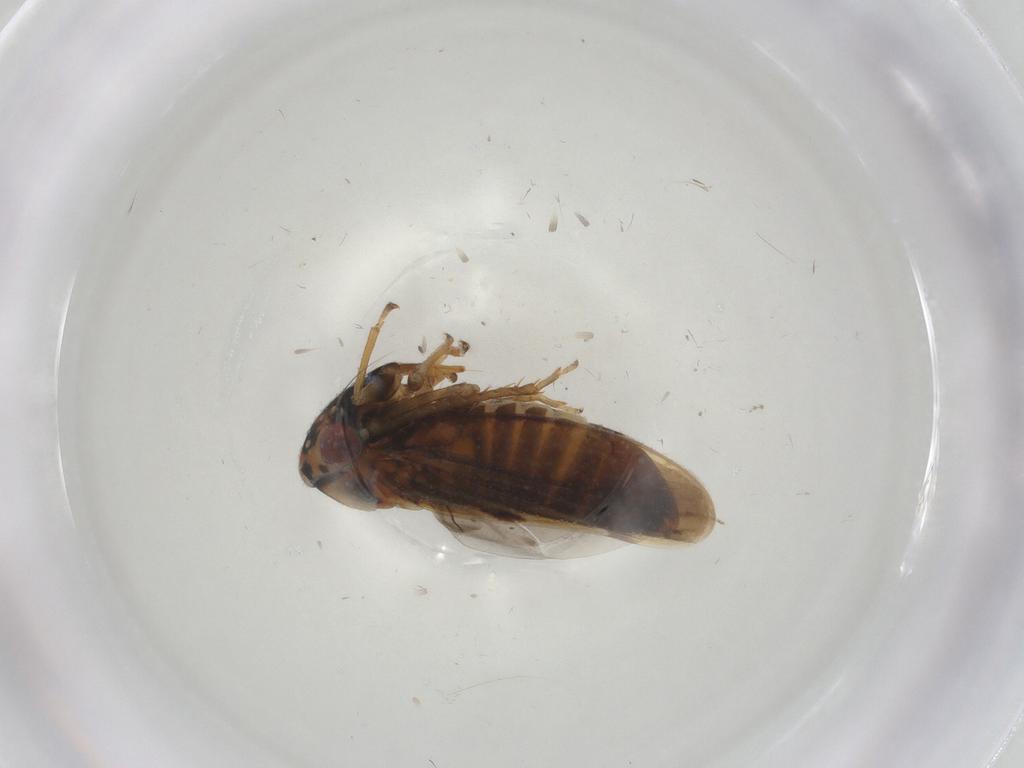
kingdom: Animalia
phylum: Arthropoda
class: Insecta
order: Hemiptera
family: Cicadellidae
